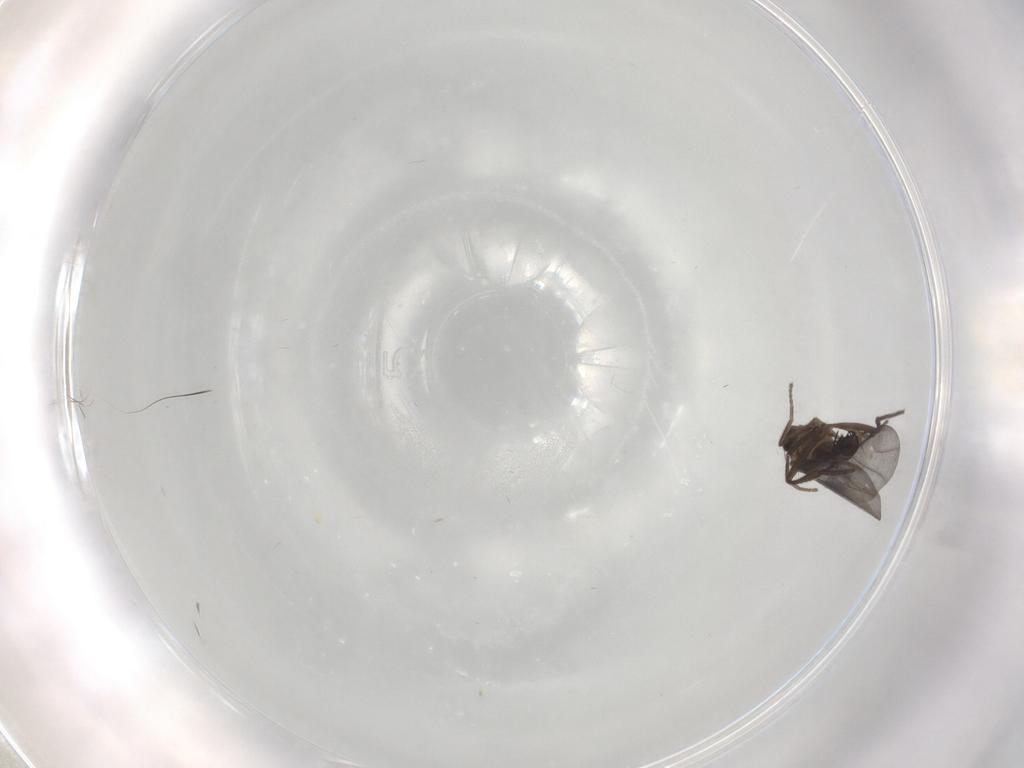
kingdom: Animalia
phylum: Arthropoda
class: Insecta
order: Diptera
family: Phoridae
